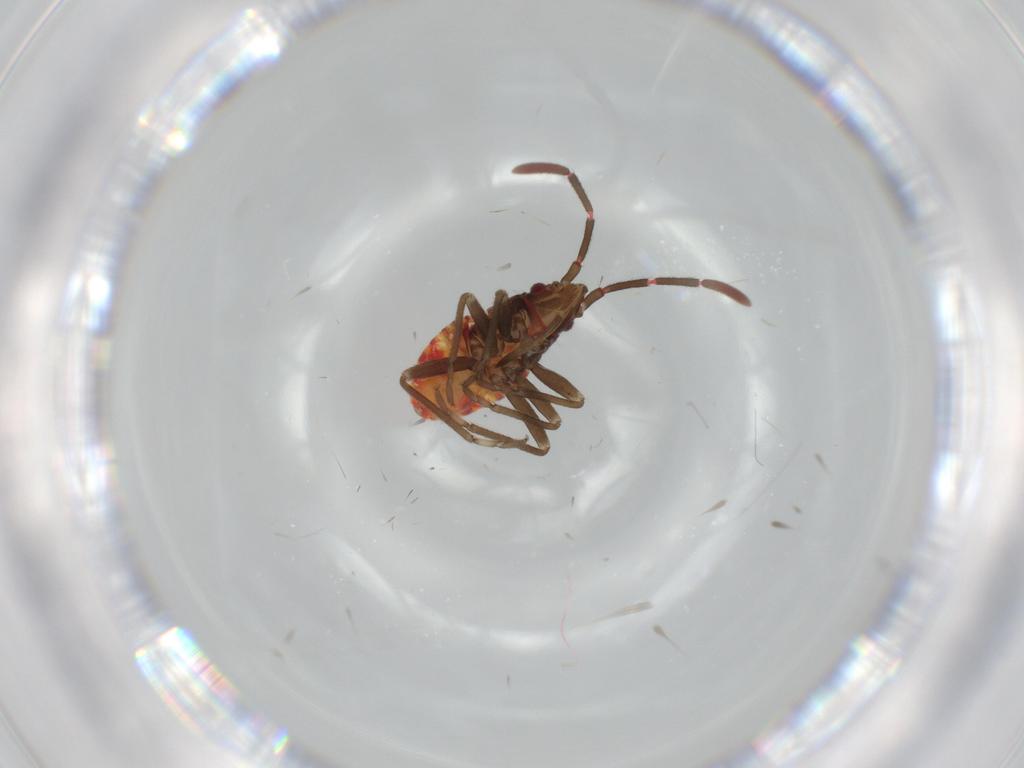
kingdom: Animalia
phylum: Arthropoda
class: Insecta
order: Hemiptera
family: Rhyparochromidae
